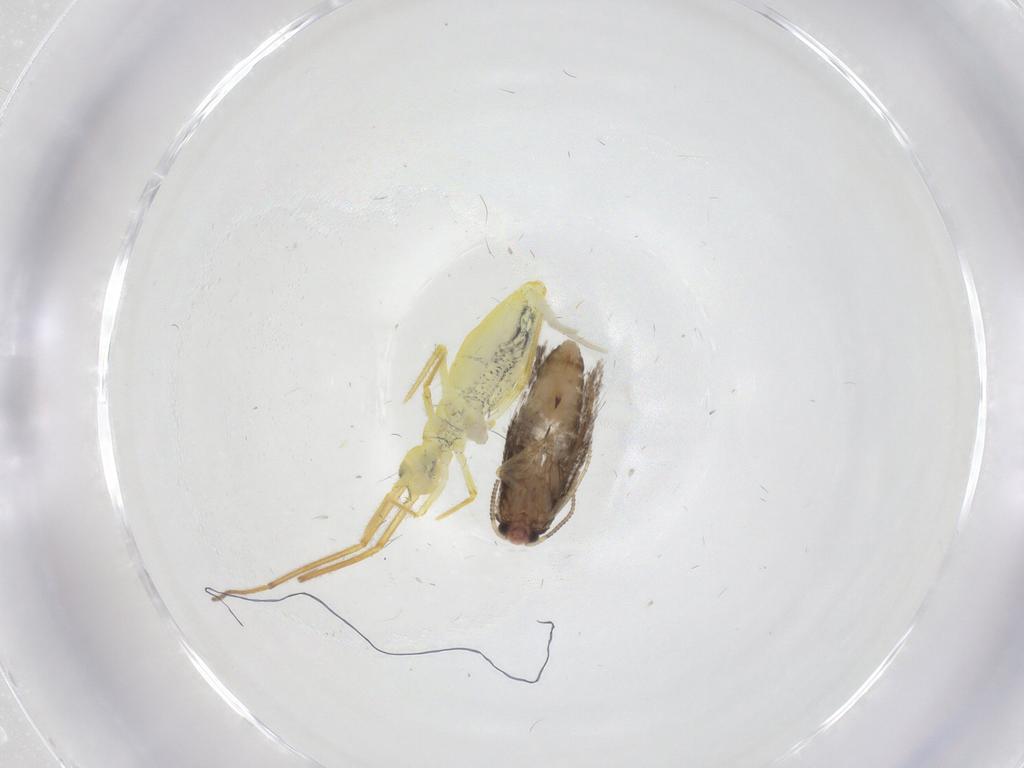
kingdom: Animalia
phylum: Arthropoda
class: Insecta
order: Lepidoptera
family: Nepticulidae
